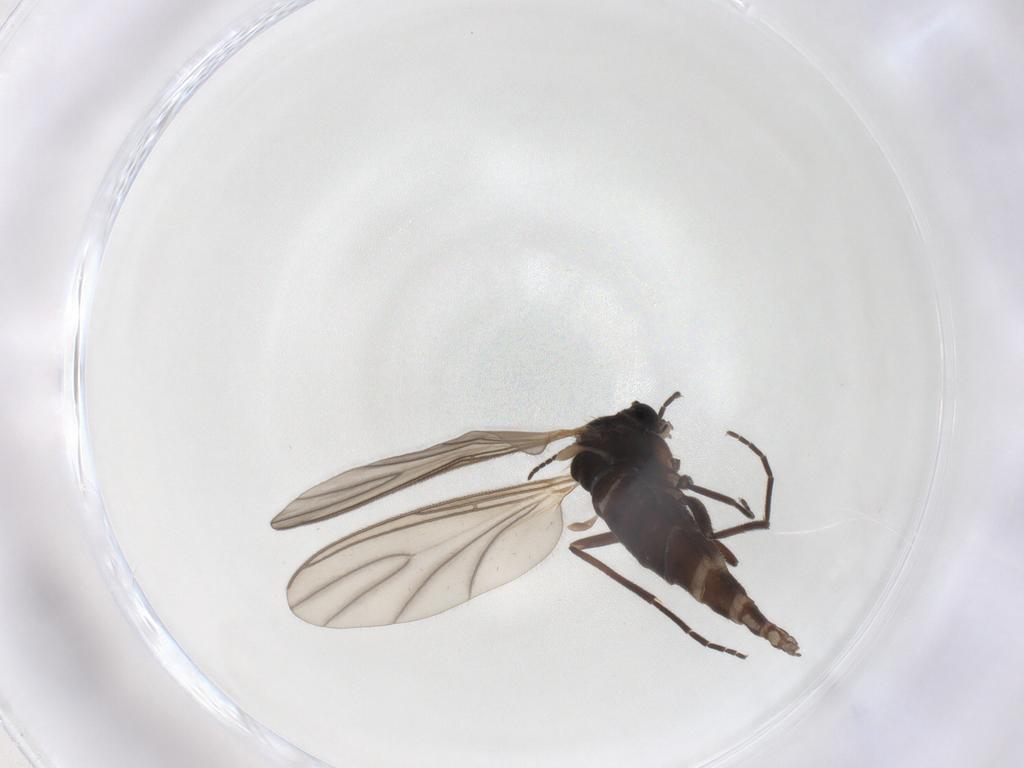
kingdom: Animalia
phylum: Arthropoda
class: Insecta
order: Diptera
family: Sciaridae
